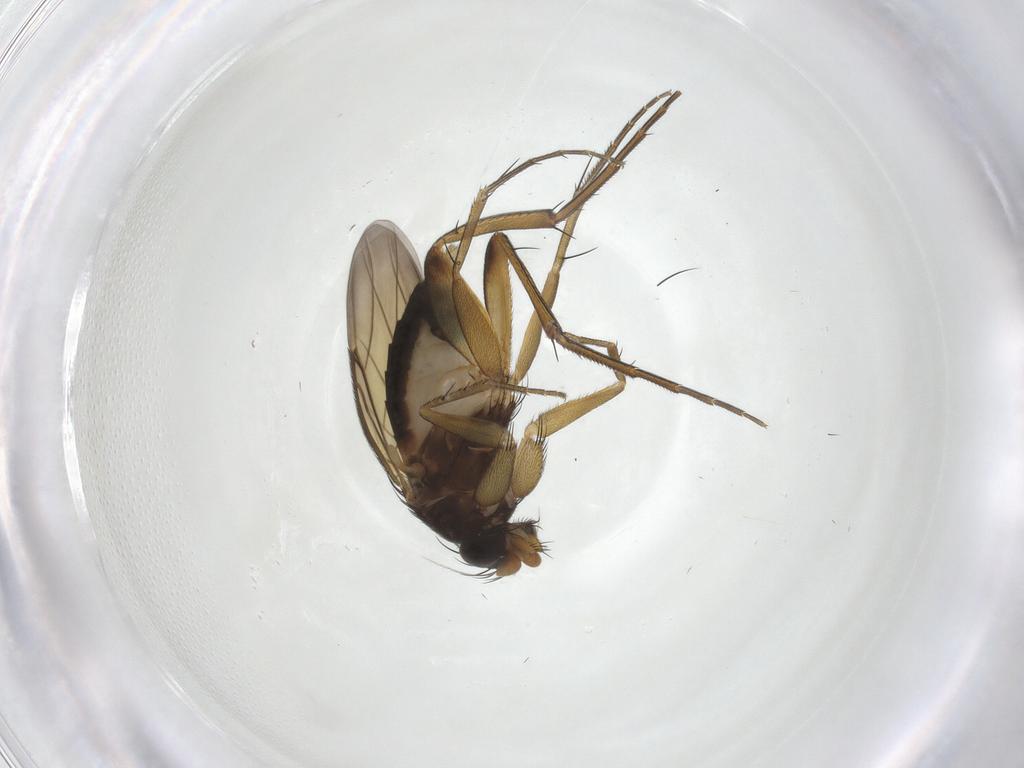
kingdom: Animalia
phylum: Arthropoda
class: Insecta
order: Diptera
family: Phoridae
